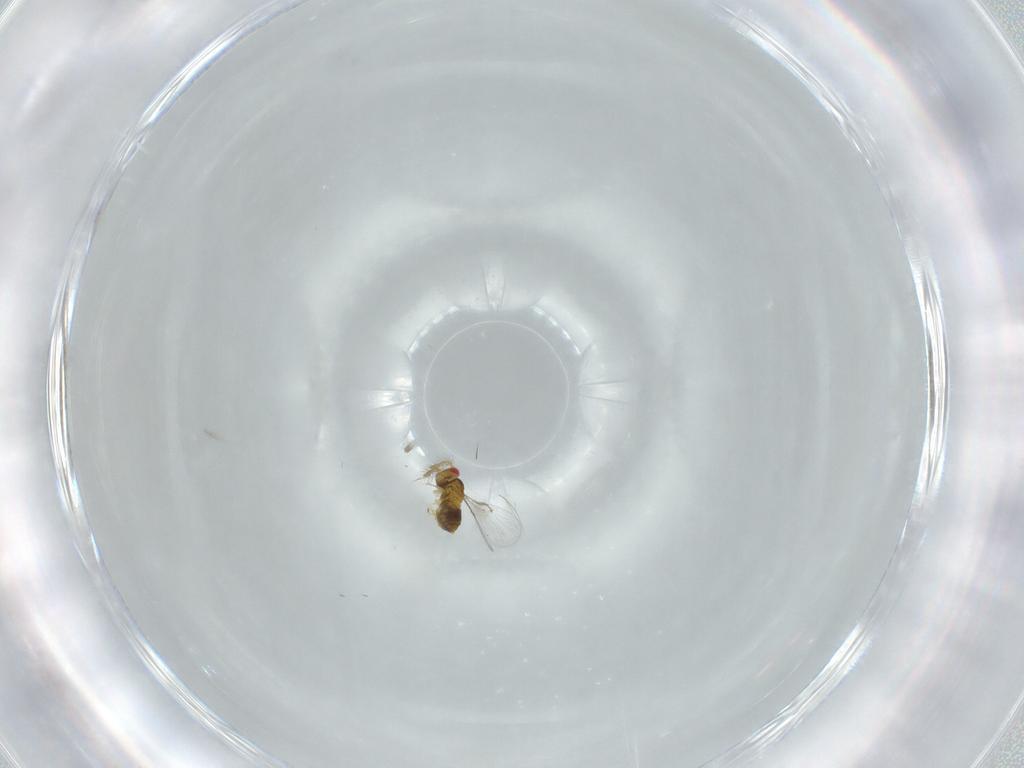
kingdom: Animalia
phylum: Arthropoda
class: Insecta
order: Hymenoptera
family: Trichogrammatidae
